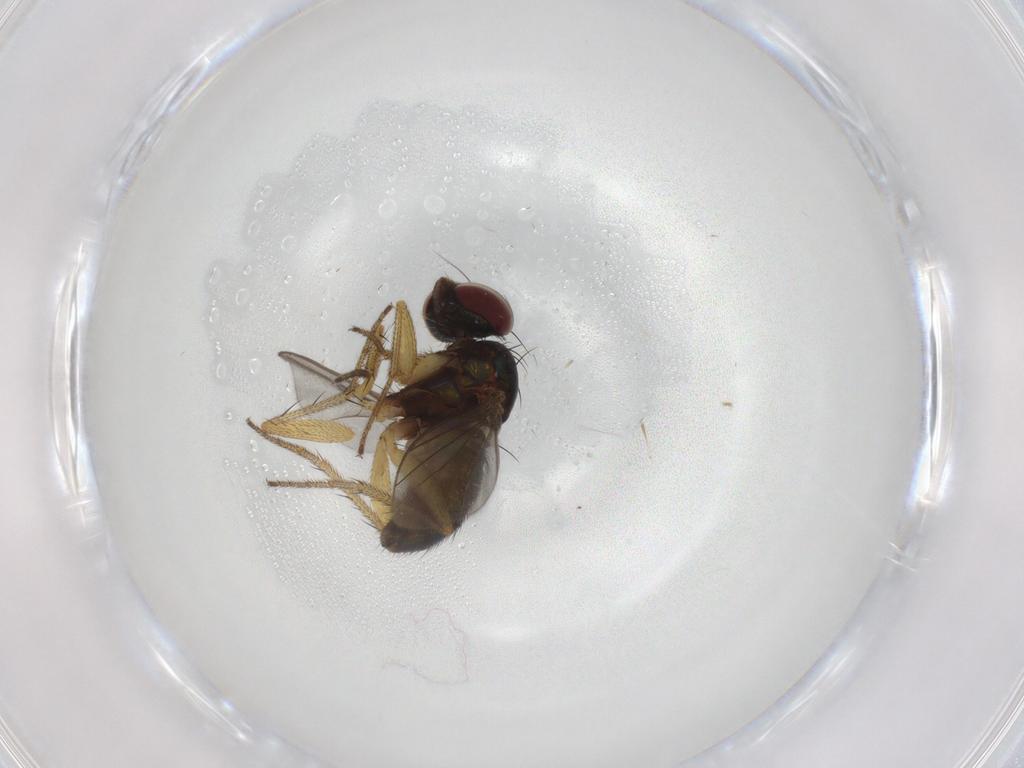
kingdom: Animalia
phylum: Arthropoda
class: Insecta
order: Diptera
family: Dolichopodidae
